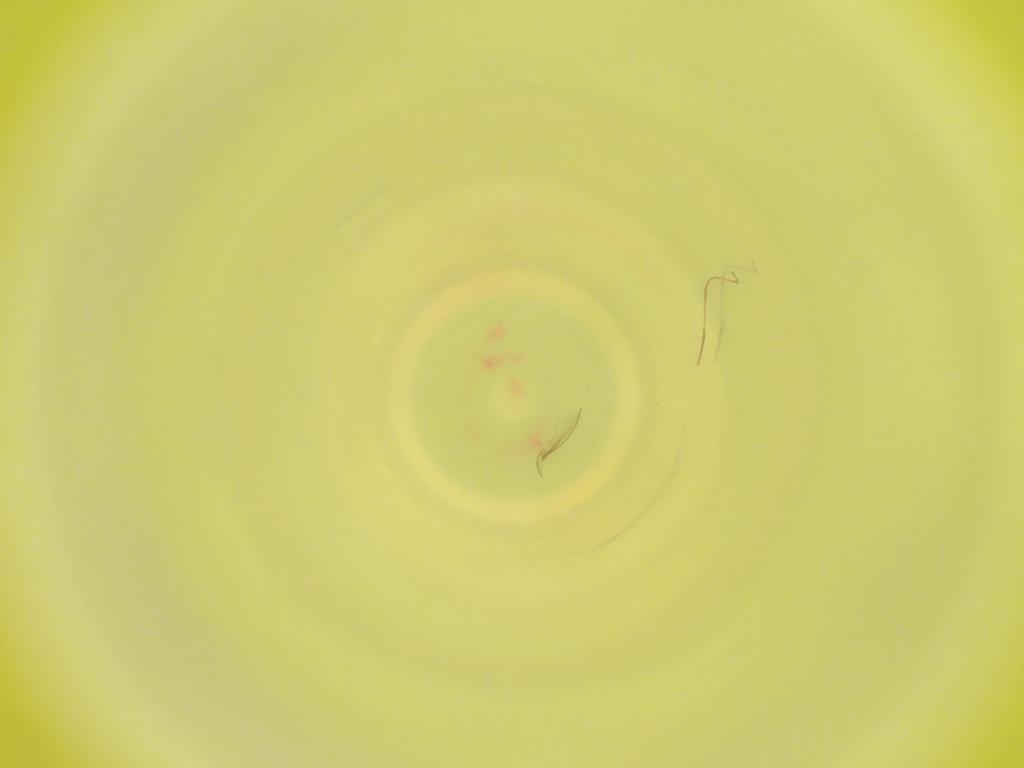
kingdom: Animalia
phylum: Arthropoda
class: Insecta
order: Diptera
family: Cecidomyiidae
